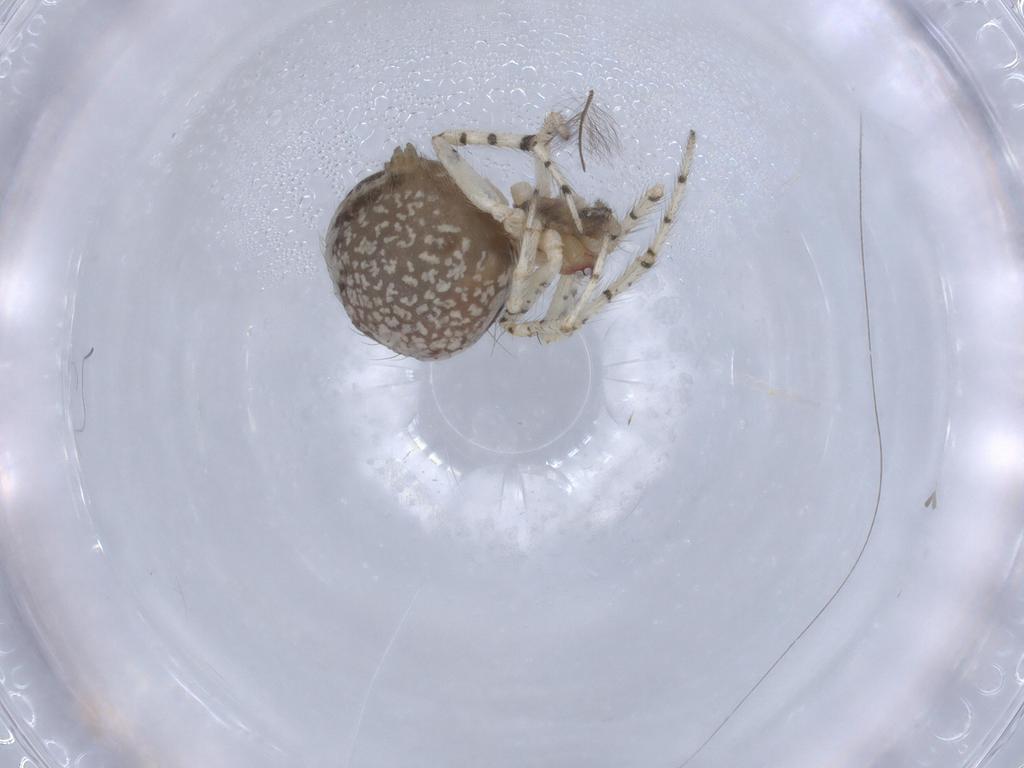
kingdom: Animalia
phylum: Arthropoda
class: Arachnida
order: Araneae
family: Theridiidae
